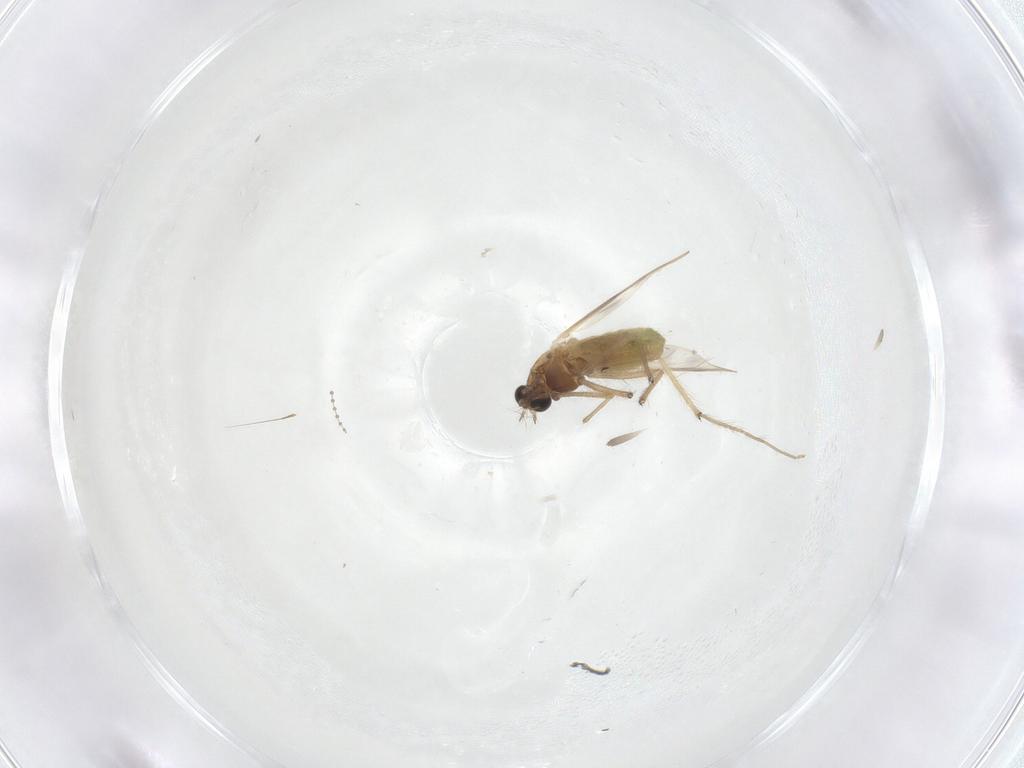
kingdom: Animalia
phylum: Arthropoda
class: Insecta
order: Diptera
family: Chironomidae
